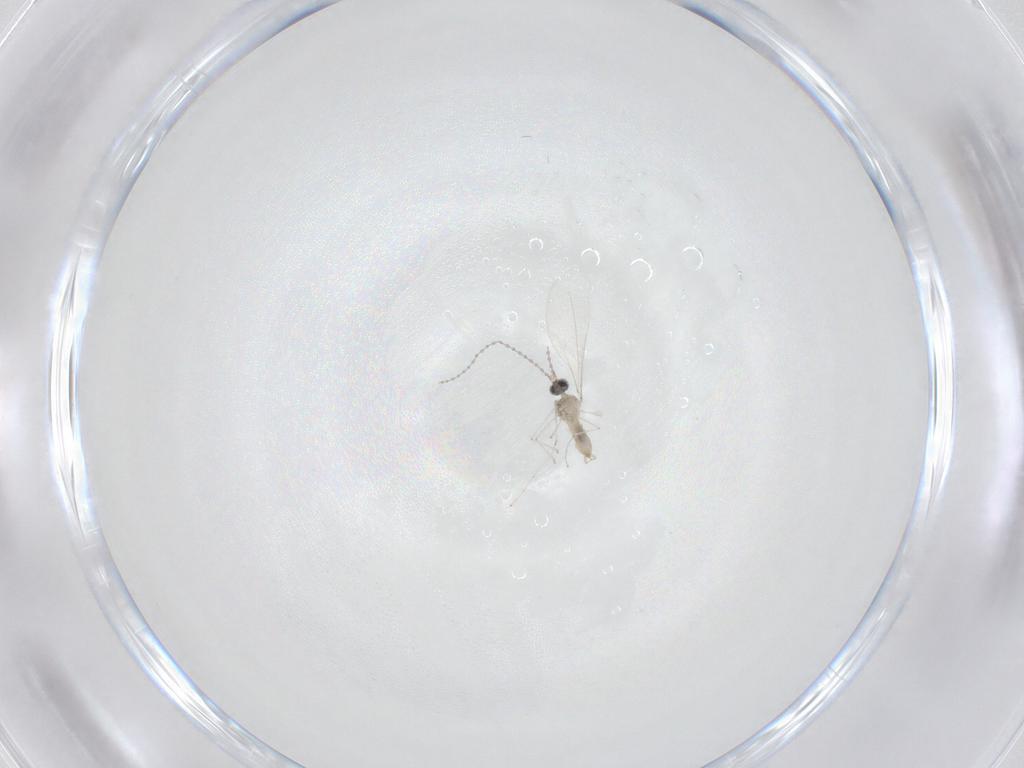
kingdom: Animalia
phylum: Arthropoda
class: Insecta
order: Diptera
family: Cecidomyiidae
